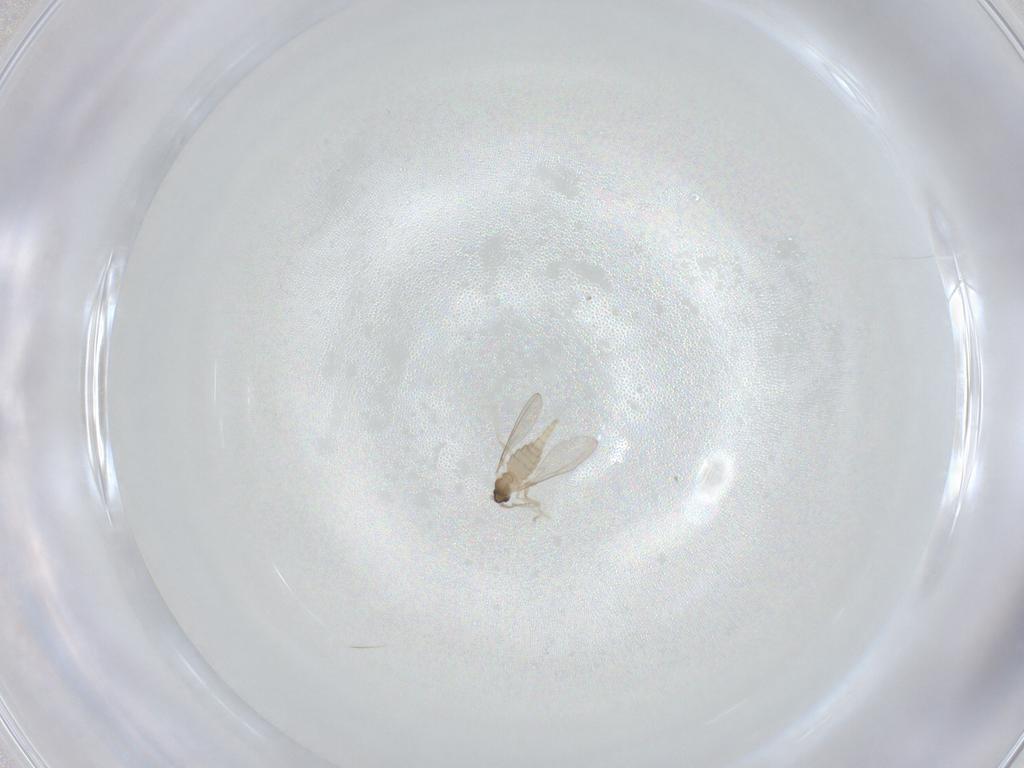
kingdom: Animalia
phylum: Arthropoda
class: Insecta
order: Diptera
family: Cecidomyiidae
